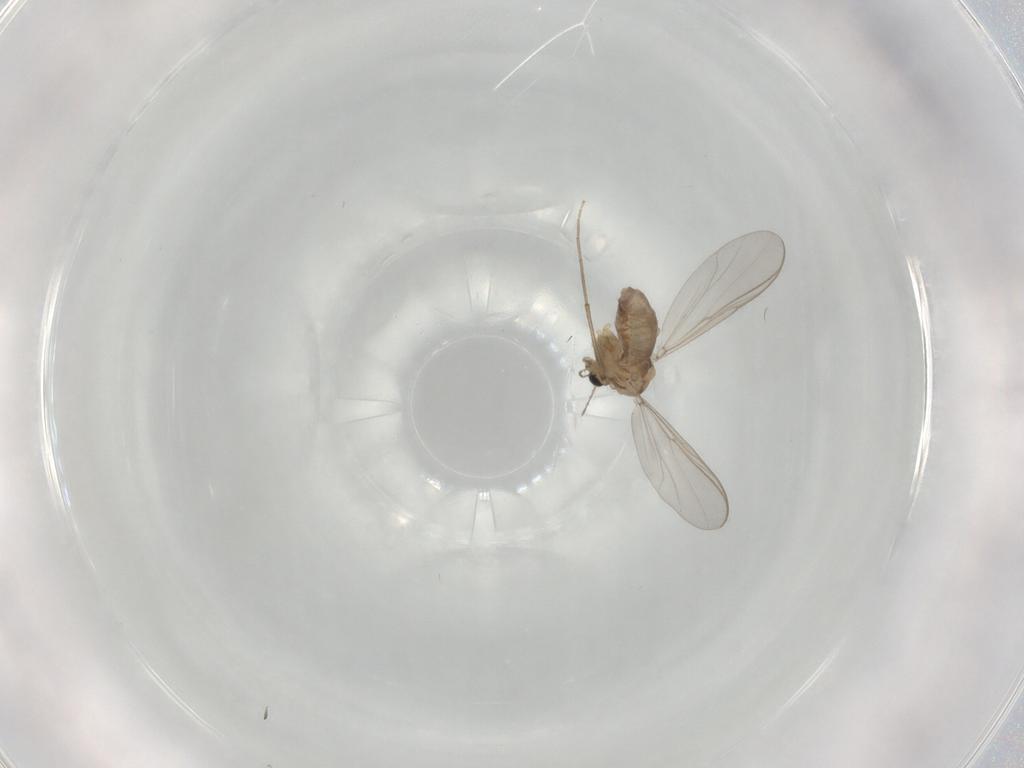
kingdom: Animalia
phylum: Arthropoda
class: Insecta
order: Diptera
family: Chironomidae
